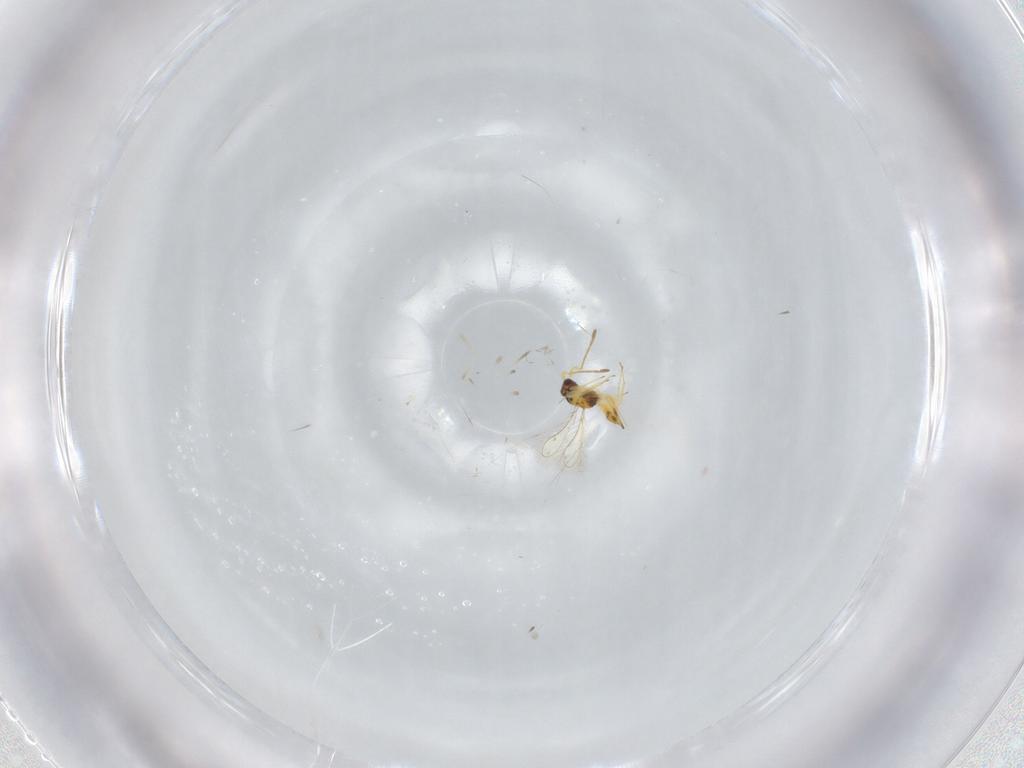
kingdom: Animalia
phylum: Arthropoda
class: Insecta
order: Hymenoptera
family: Mymaridae
